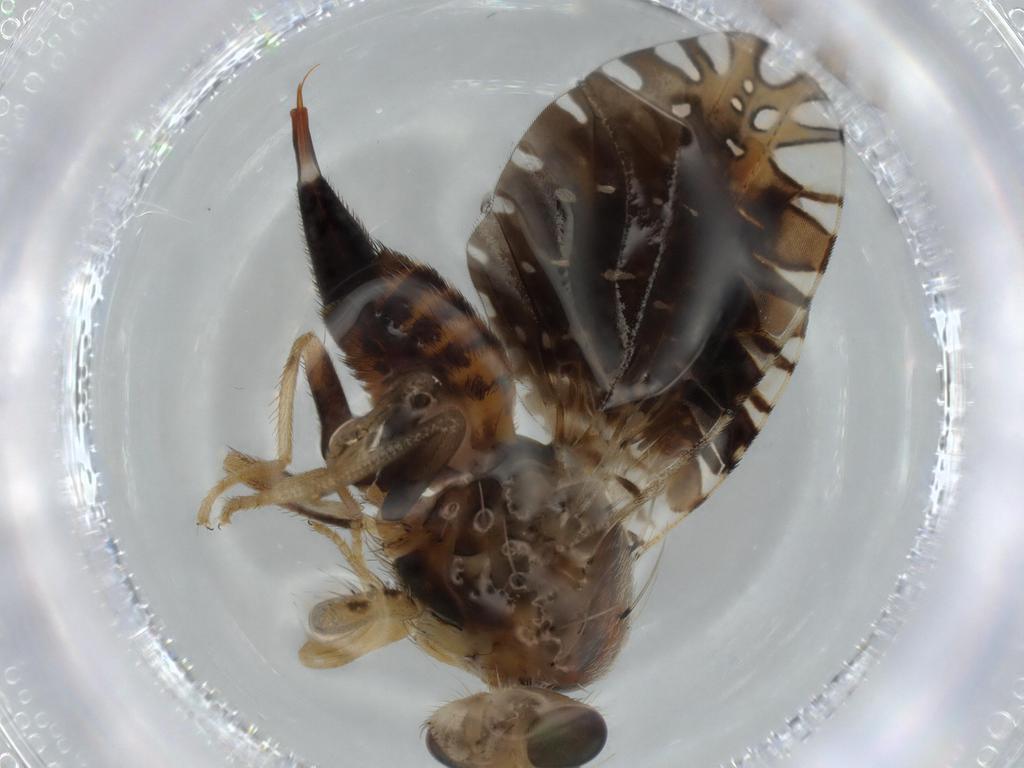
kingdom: Animalia
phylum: Arthropoda
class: Insecta
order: Diptera
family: Tephritidae
